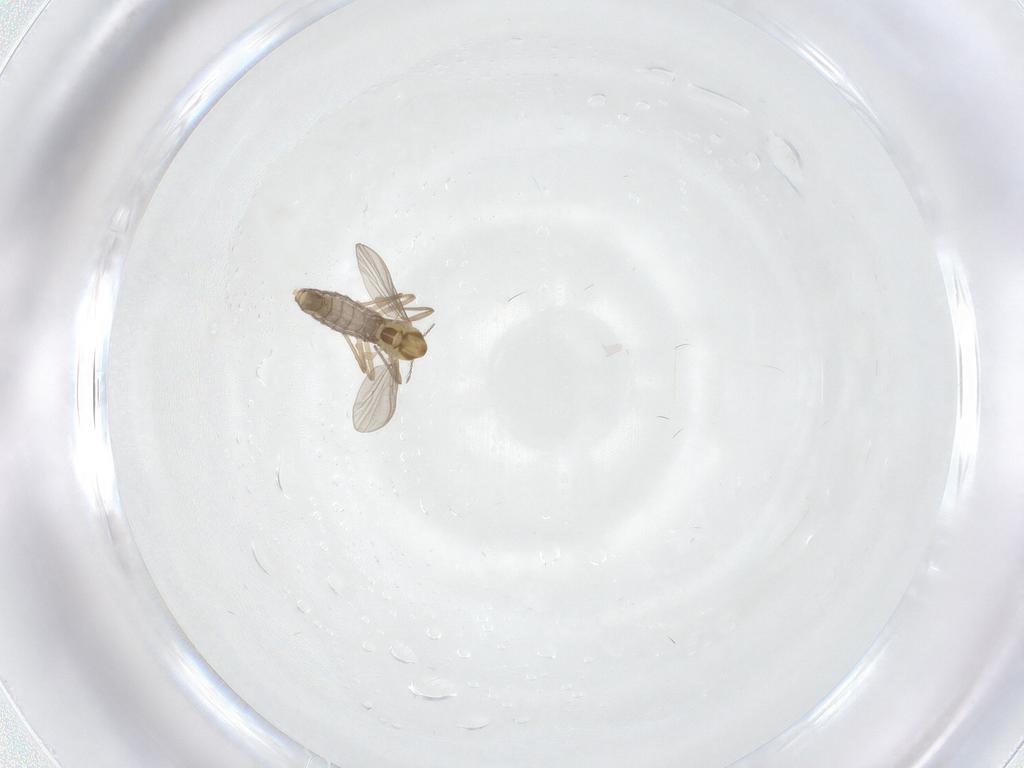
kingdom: Animalia
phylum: Arthropoda
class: Insecta
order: Diptera
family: Chironomidae
